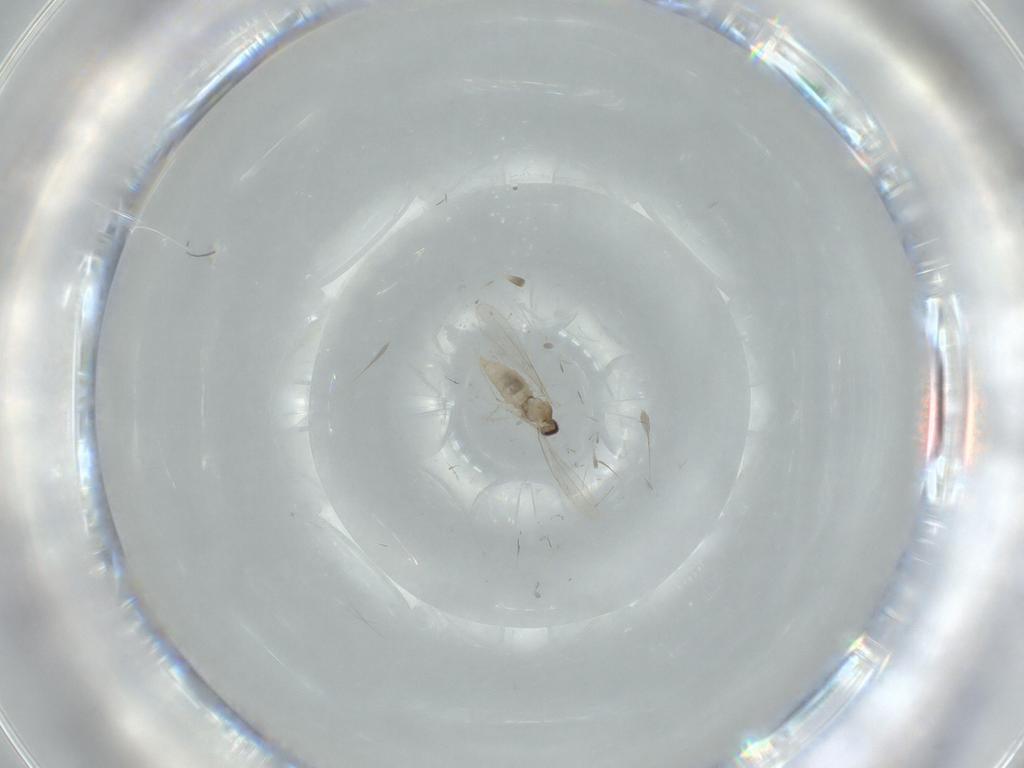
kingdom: Animalia
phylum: Arthropoda
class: Insecta
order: Diptera
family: Cecidomyiidae
